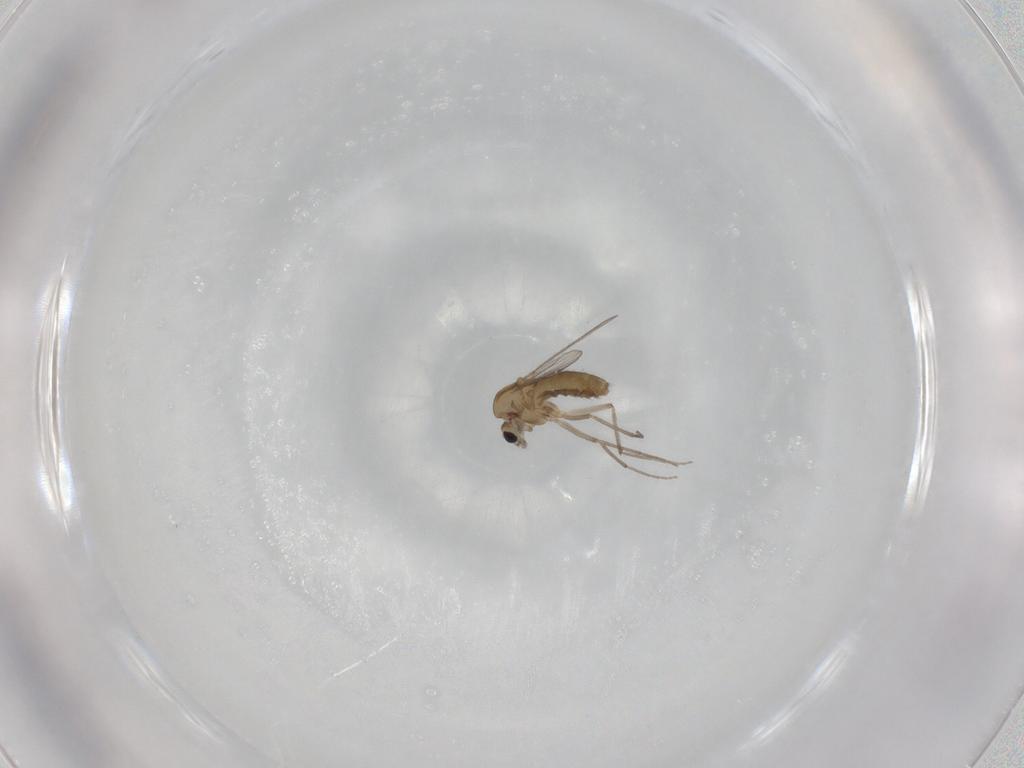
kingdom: Animalia
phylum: Arthropoda
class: Insecta
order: Diptera
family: Chironomidae
